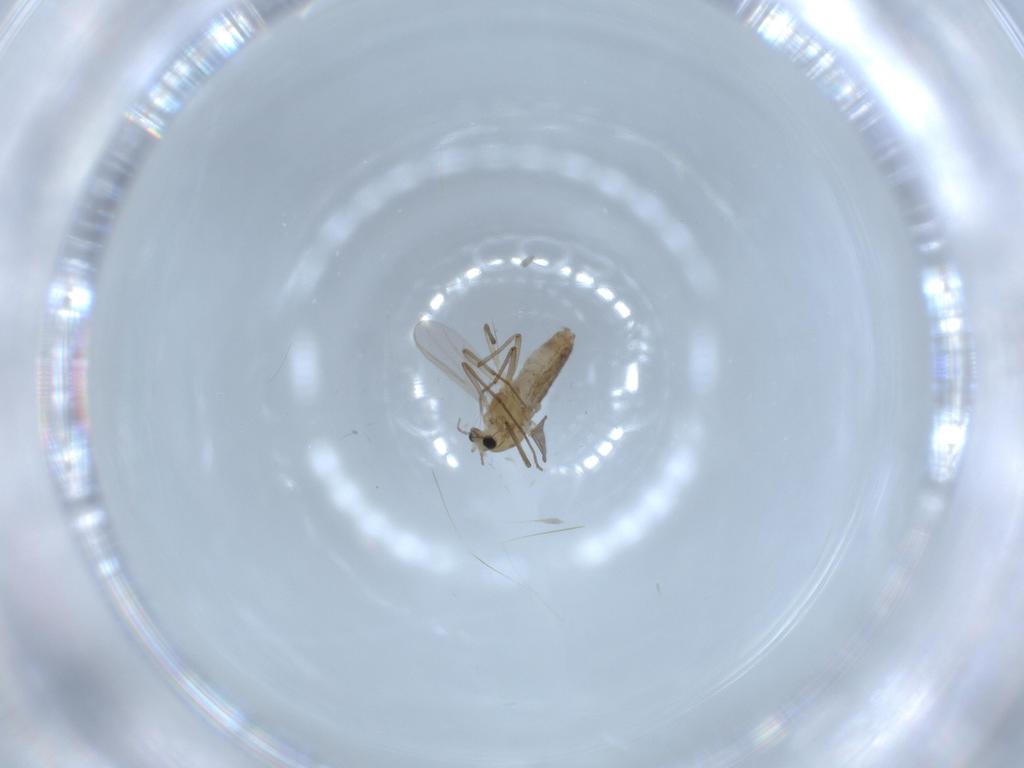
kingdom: Animalia
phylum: Arthropoda
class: Insecta
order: Diptera
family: Chironomidae
